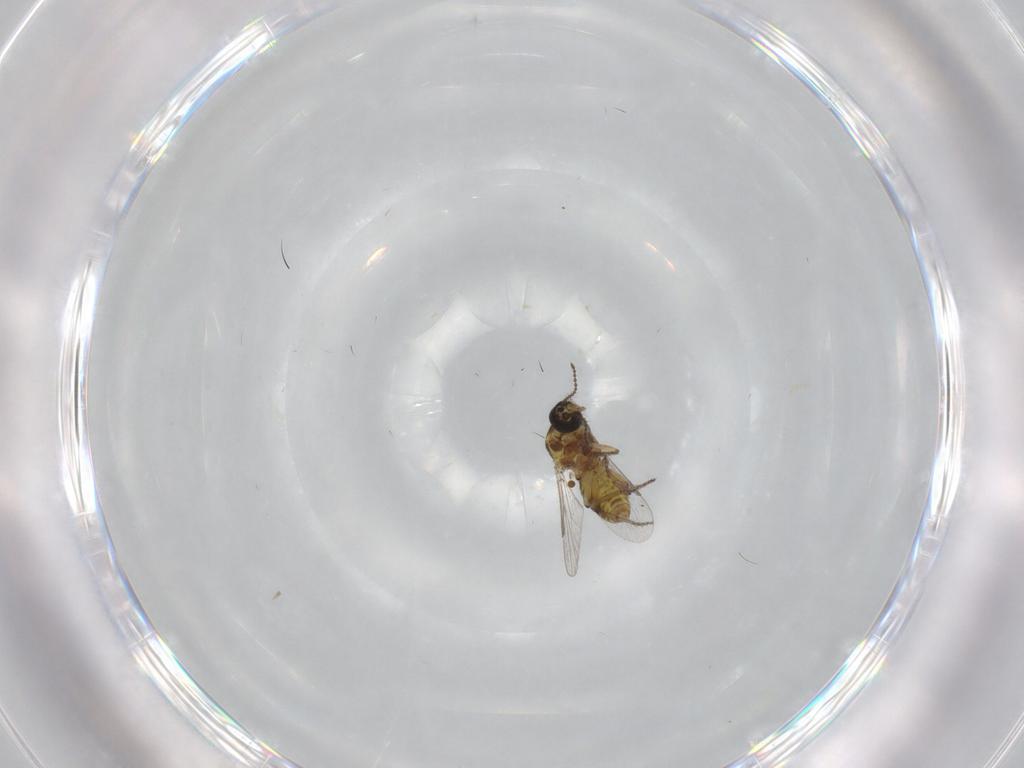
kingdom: Animalia
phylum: Arthropoda
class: Insecta
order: Diptera
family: Ceratopogonidae
